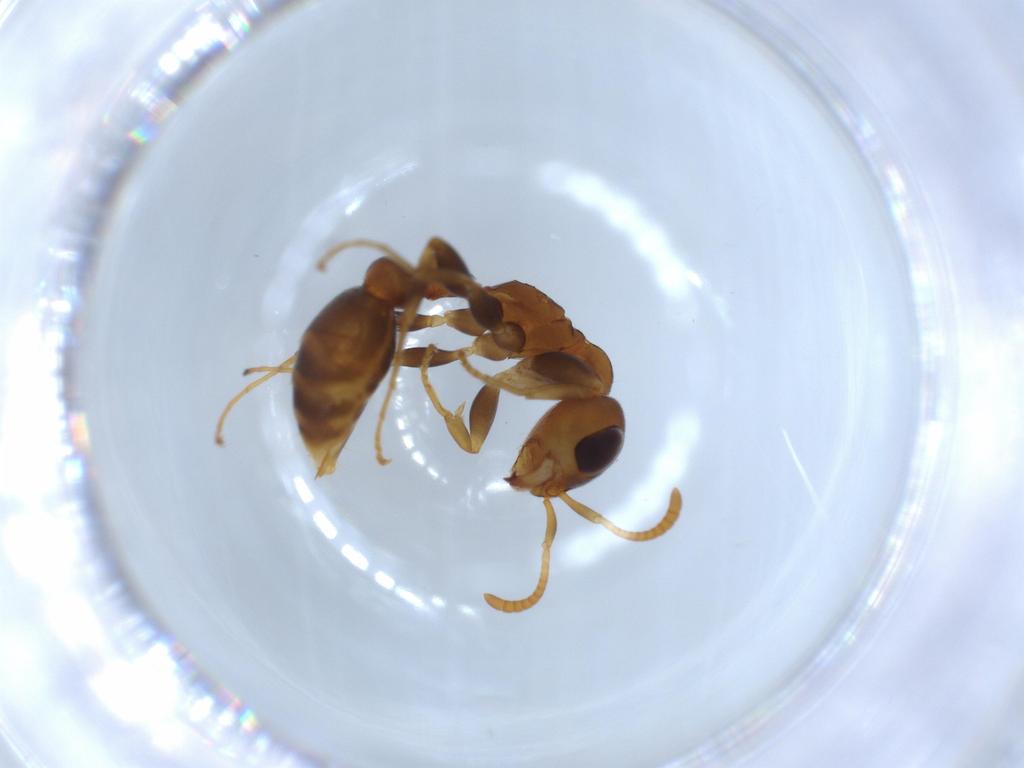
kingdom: Animalia
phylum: Arthropoda
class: Insecta
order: Hymenoptera
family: Formicidae
